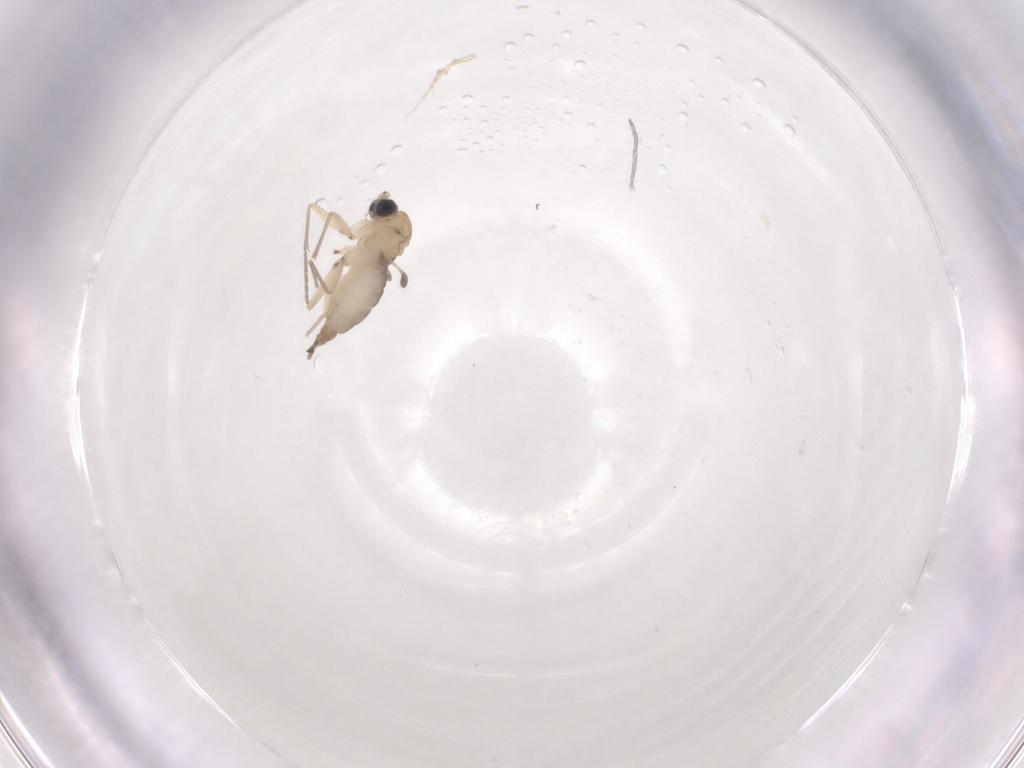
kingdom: Animalia
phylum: Arthropoda
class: Insecta
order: Diptera
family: Sciaridae
